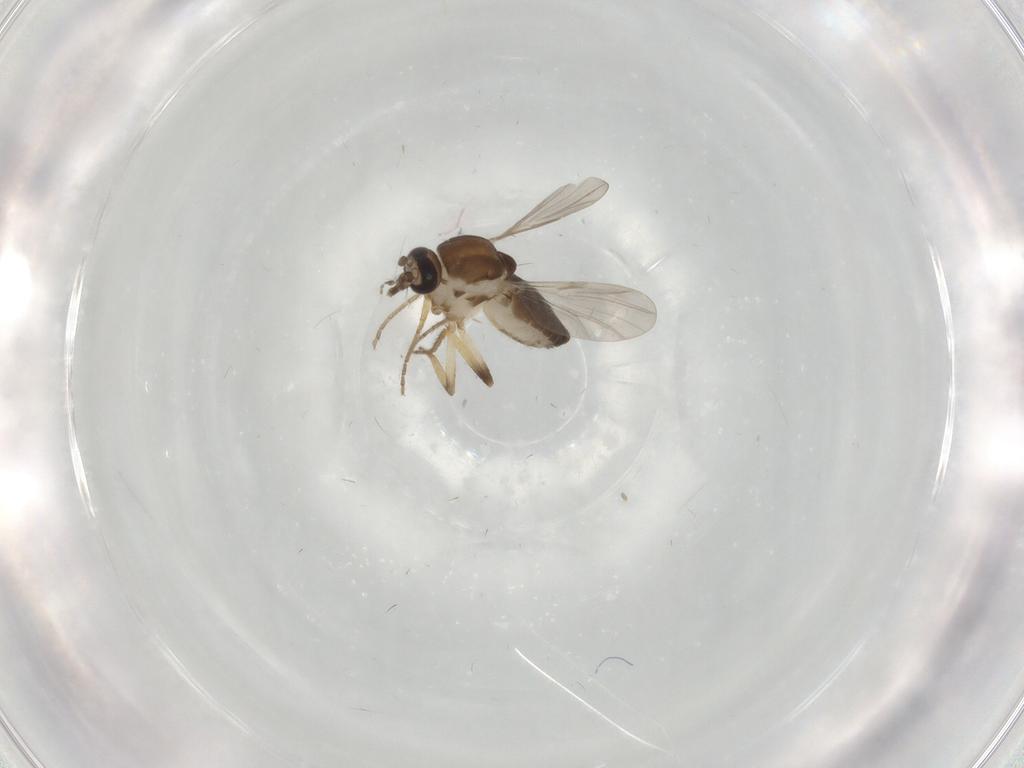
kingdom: Animalia
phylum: Arthropoda
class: Insecta
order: Diptera
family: Ceratopogonidae
